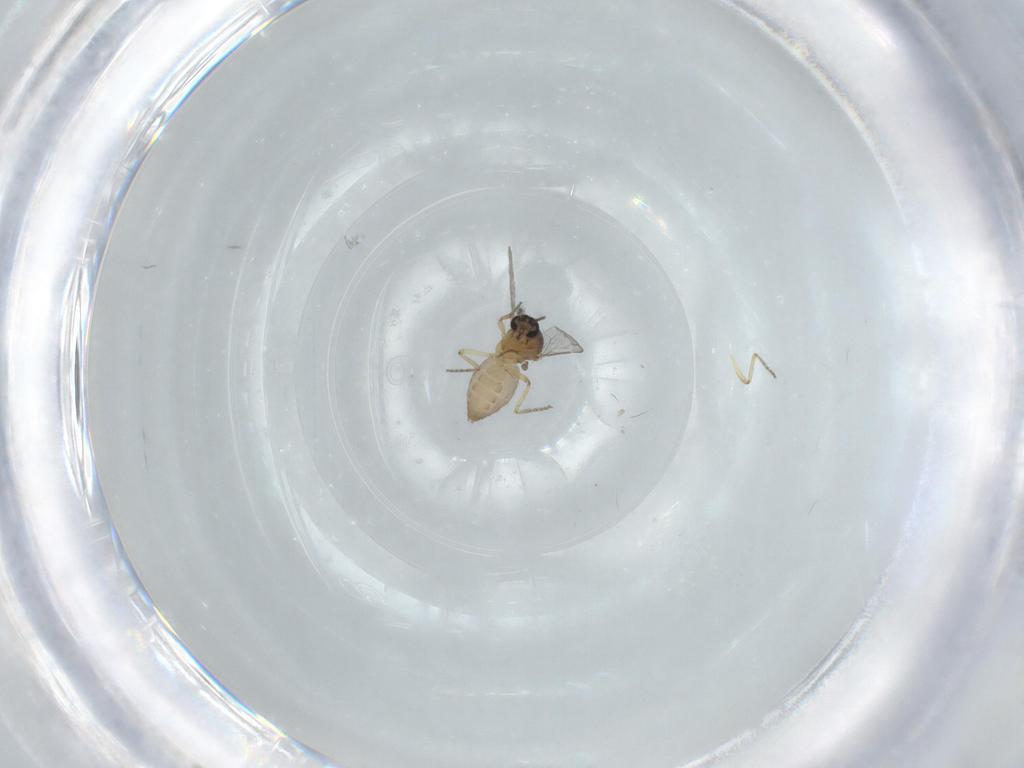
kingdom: Animalia
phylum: Arthropoda
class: Insecta
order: Diptera
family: Ceratopogonidae
